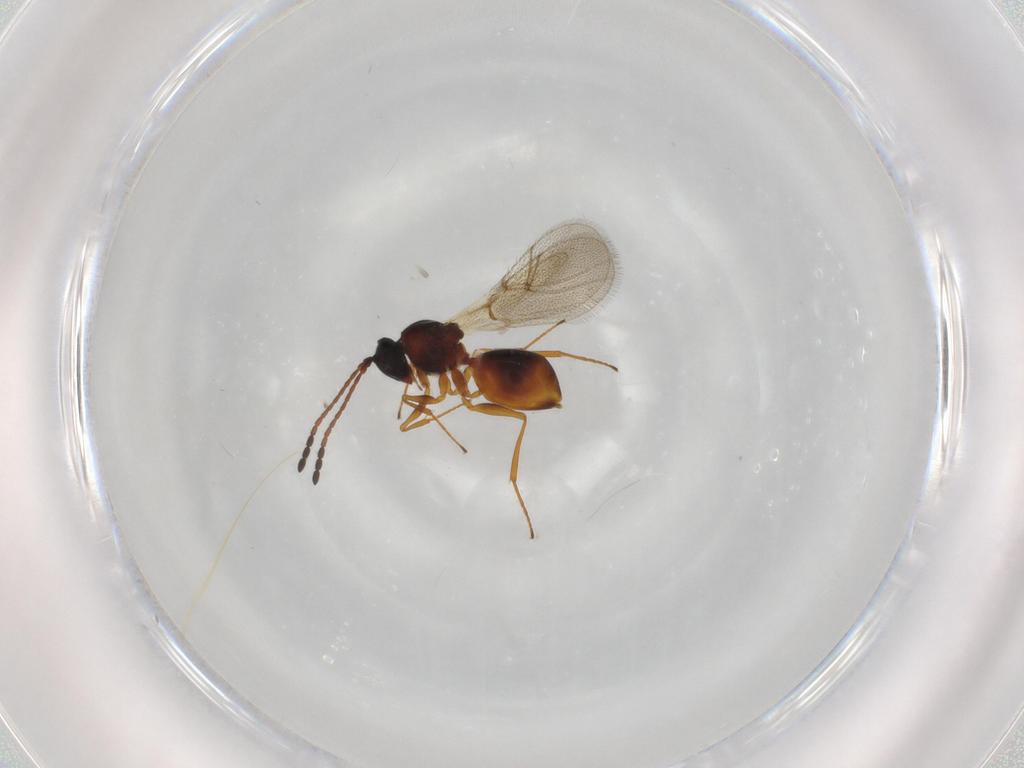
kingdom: Animalia
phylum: Arthropoda
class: Insecta
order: Hymenoptera
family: Figitidae
